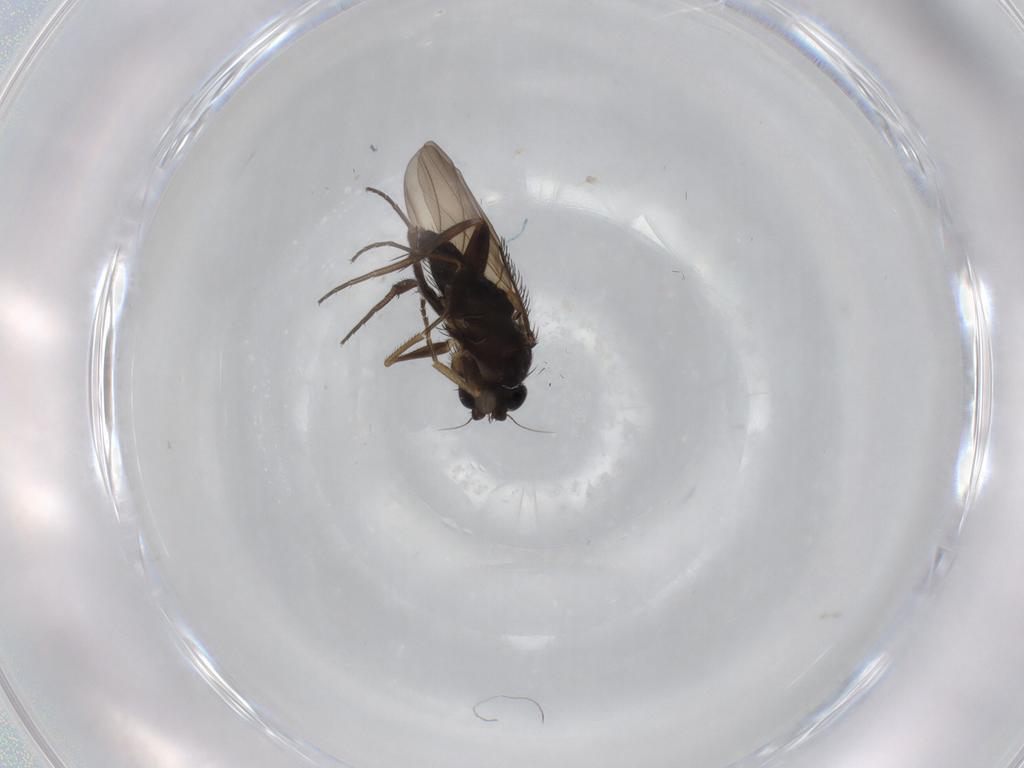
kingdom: Animalia
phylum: Arthropoda
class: Insecta
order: Diptera
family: Phoridae
